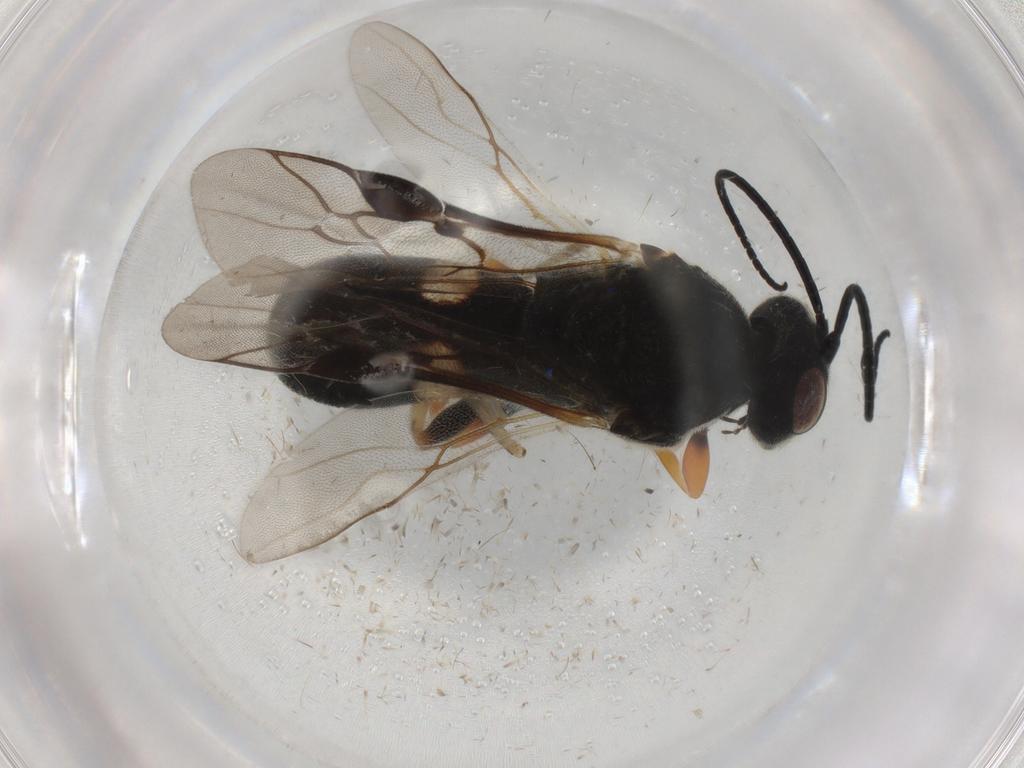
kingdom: Animalia
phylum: Arthropoda
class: Insecta
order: Hymenoptera
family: Braconidae
